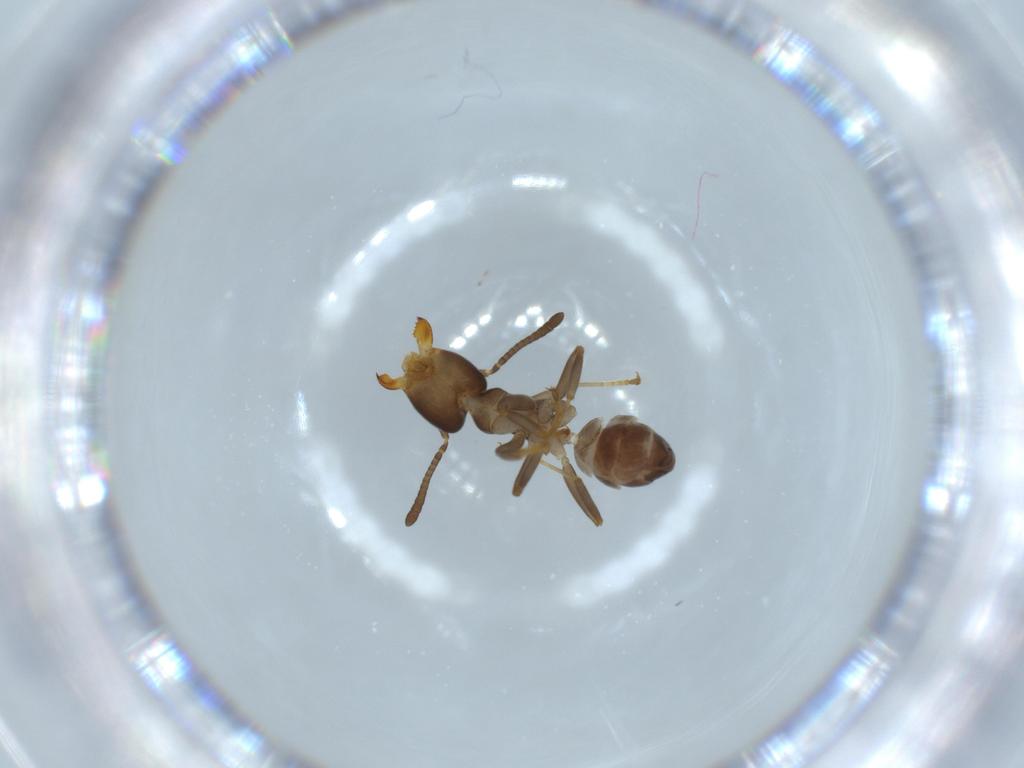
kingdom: Animalia
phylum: Arthropoda
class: Insecta
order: Hymenoptera
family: Formicidae
